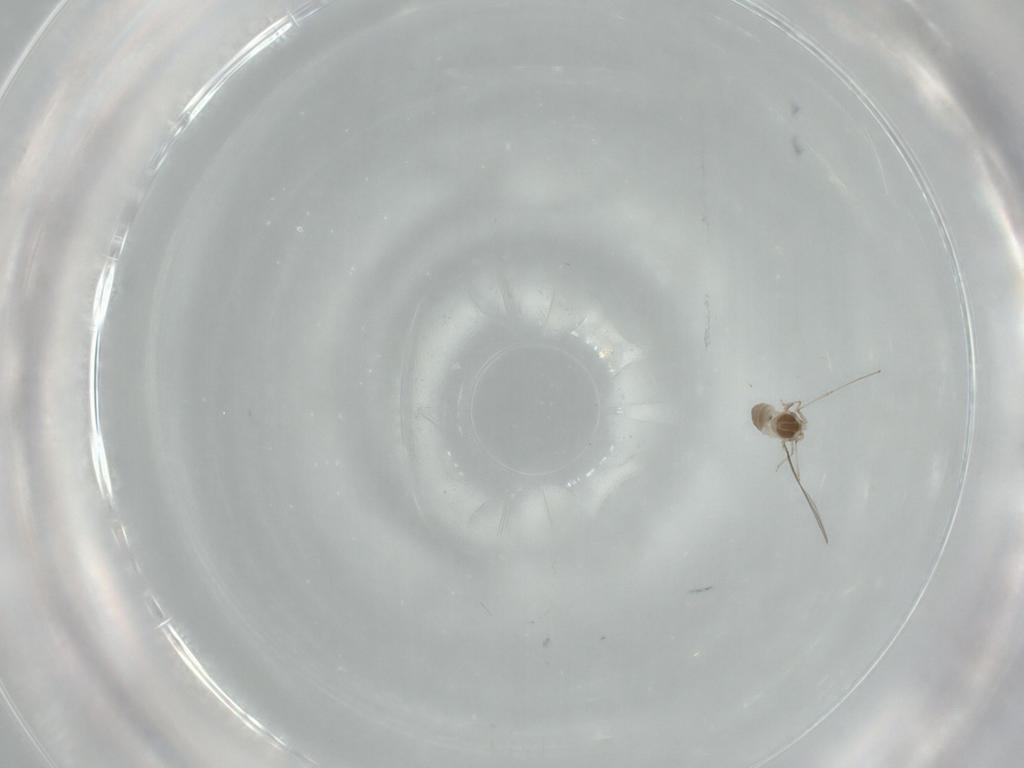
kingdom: Animalia
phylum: Arthropoda
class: Insecta
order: Diptera
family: Cecidomyiidae
